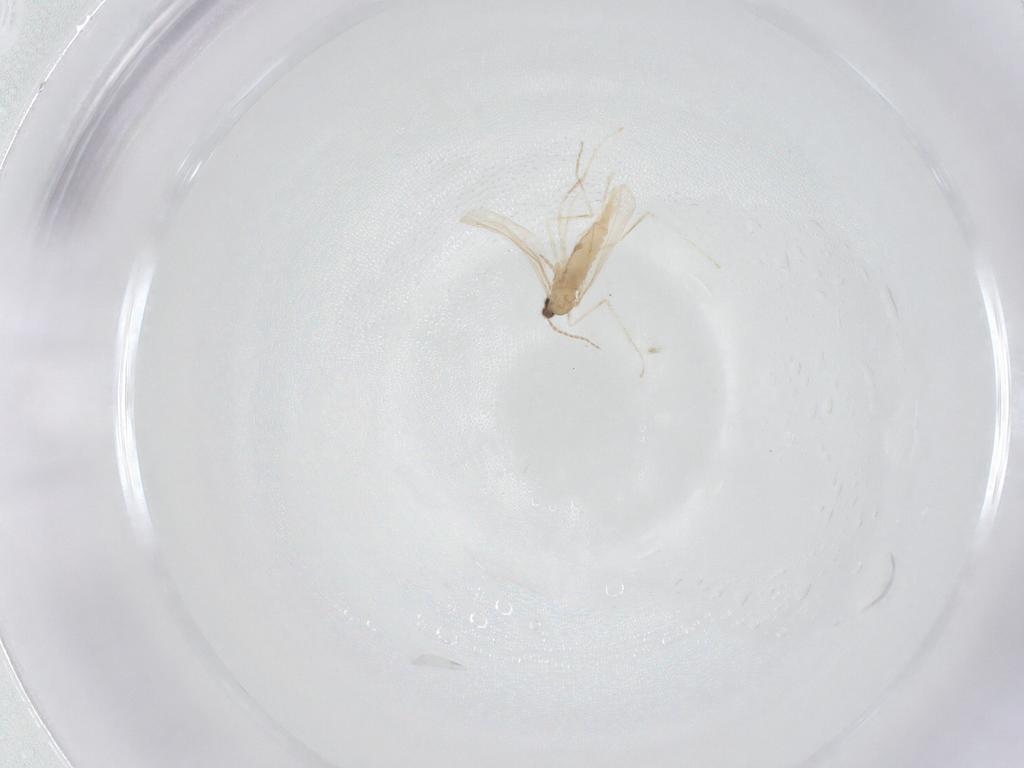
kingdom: Animalia
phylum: Arthropoda
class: Insecta
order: Diptera
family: Cecidomyiidae
